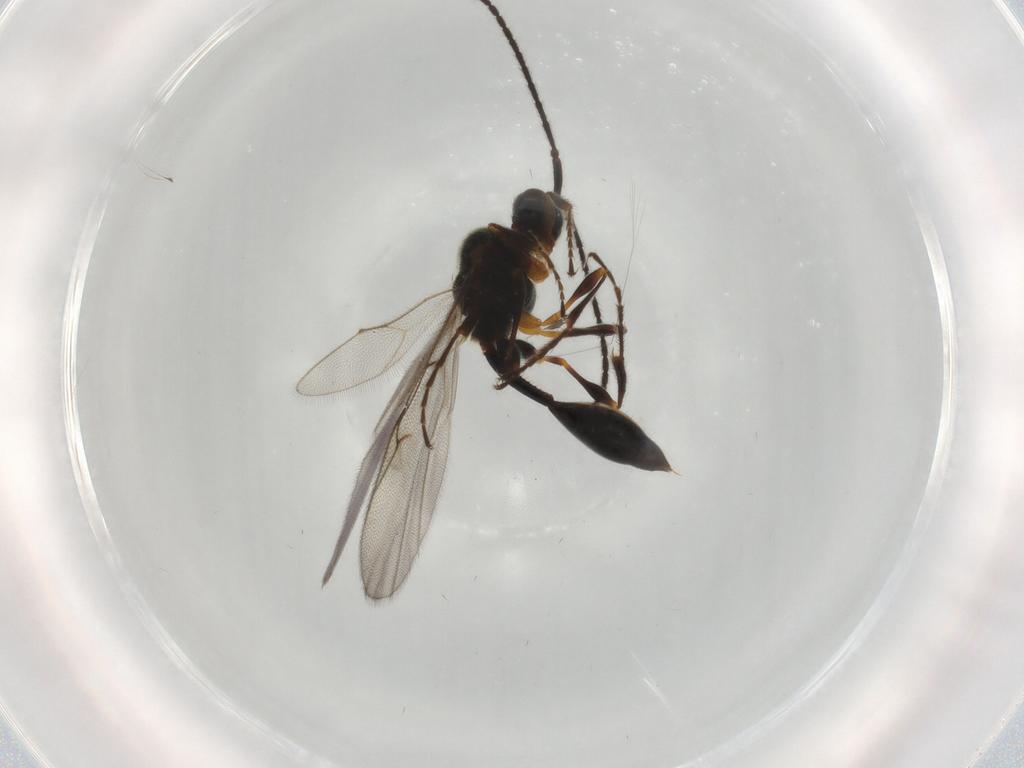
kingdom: Animalia
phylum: Arthropoda
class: Insecta
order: Hymenoptera
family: Diapriidae
